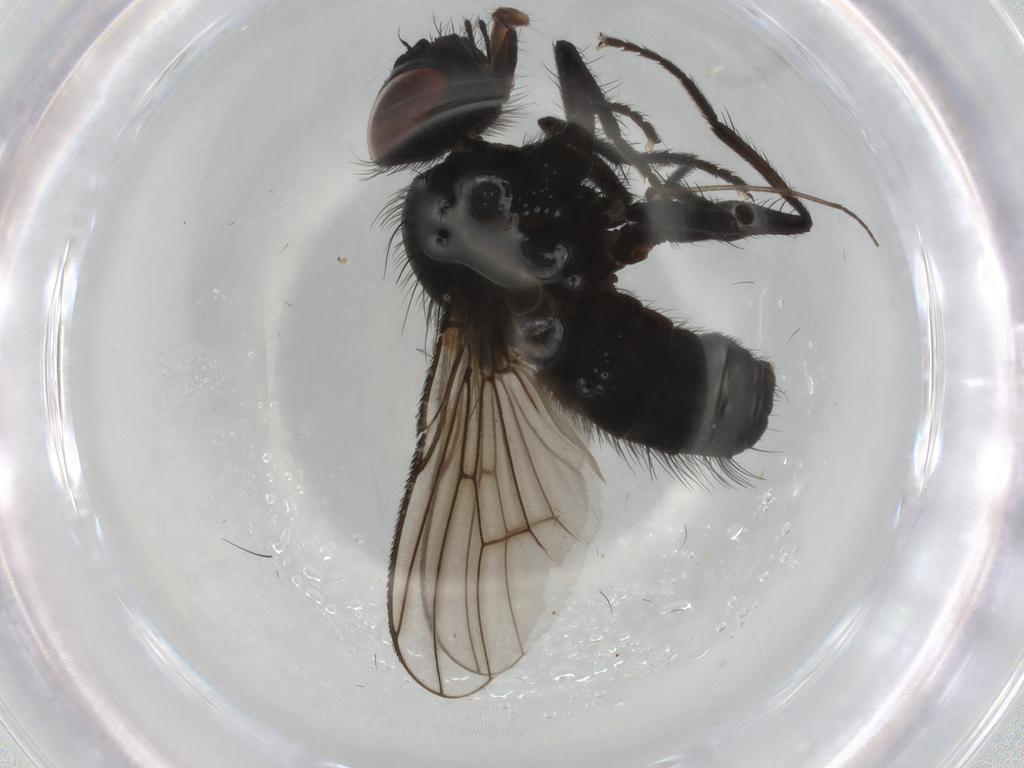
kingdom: Animalia
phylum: Arthropoda
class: Insecta
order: Diptera
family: Muscidae
